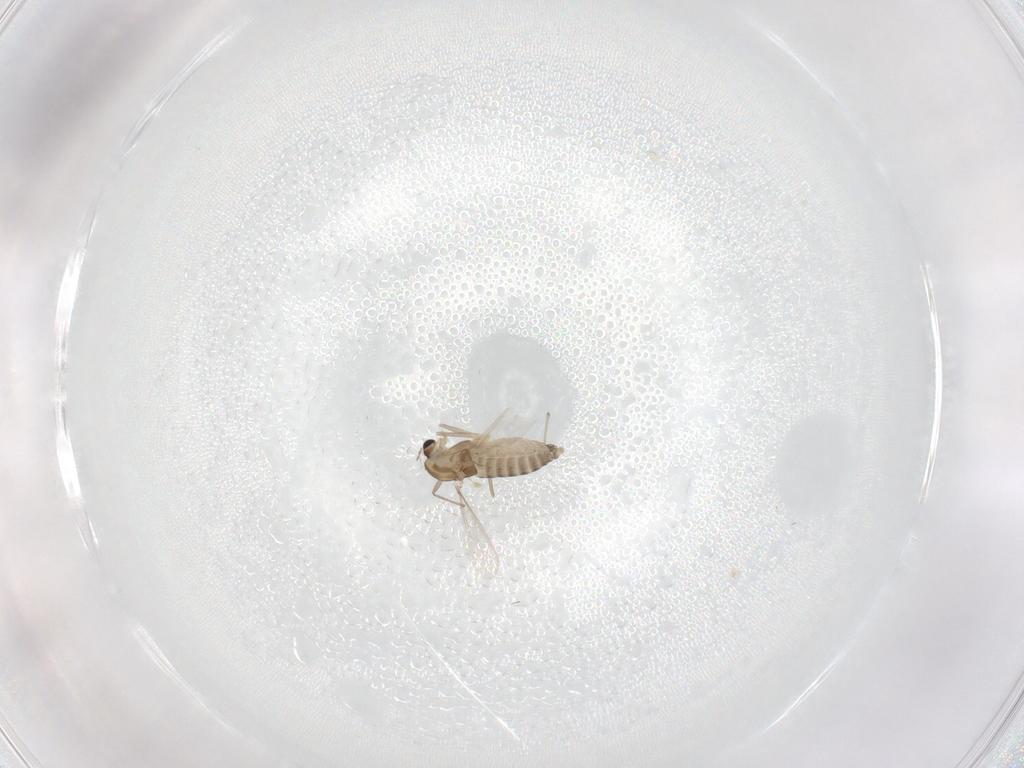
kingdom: Animalia
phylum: Arthropoda
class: Insecta
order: Diptera
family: Chironomidae
